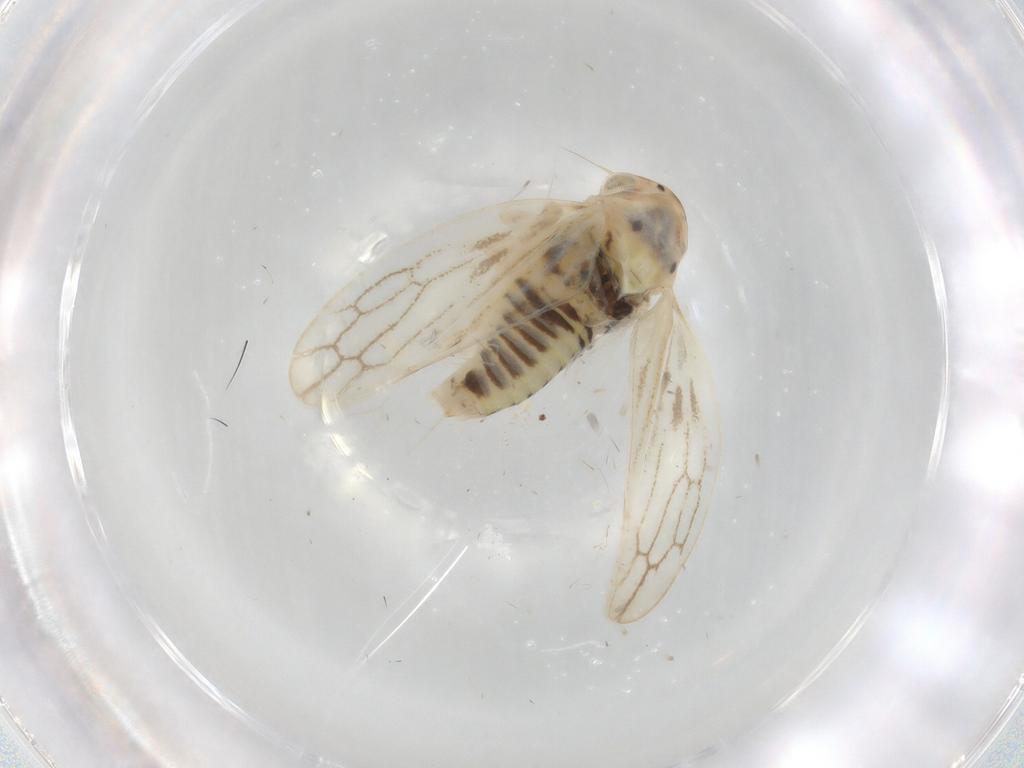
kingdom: Animalia
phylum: Arthropoda
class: Insecta
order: Hemiptera
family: Cicadellidae
